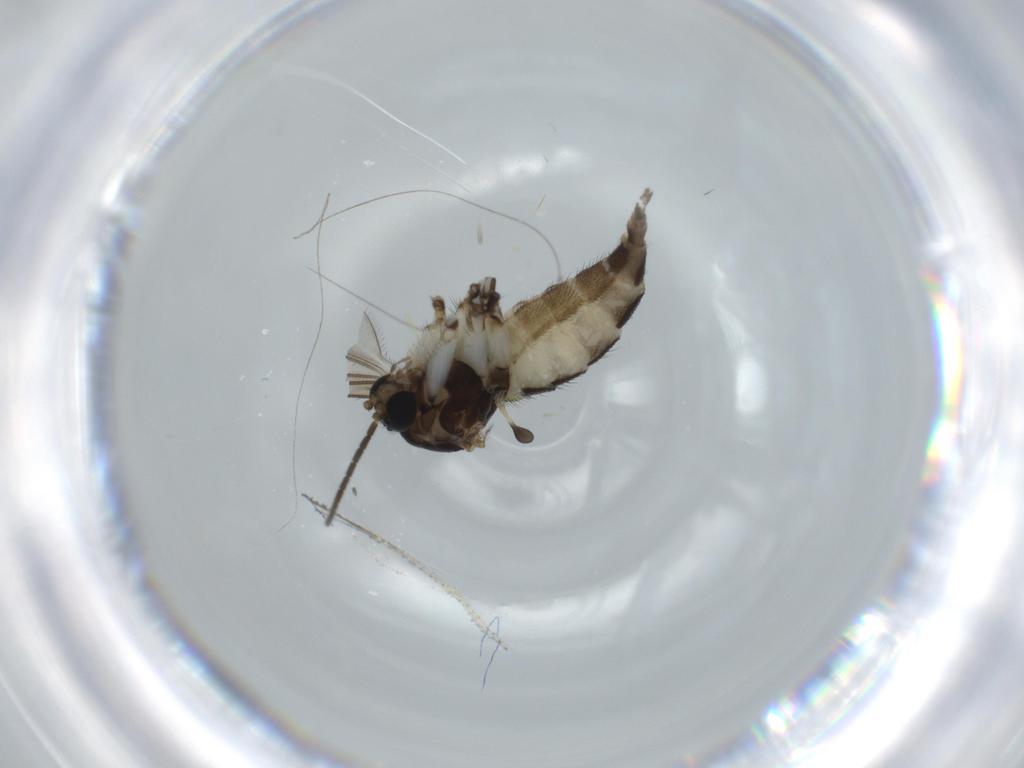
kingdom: Animalia
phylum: Arthropoda
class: Insecta
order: Diptera
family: Sciaridae
